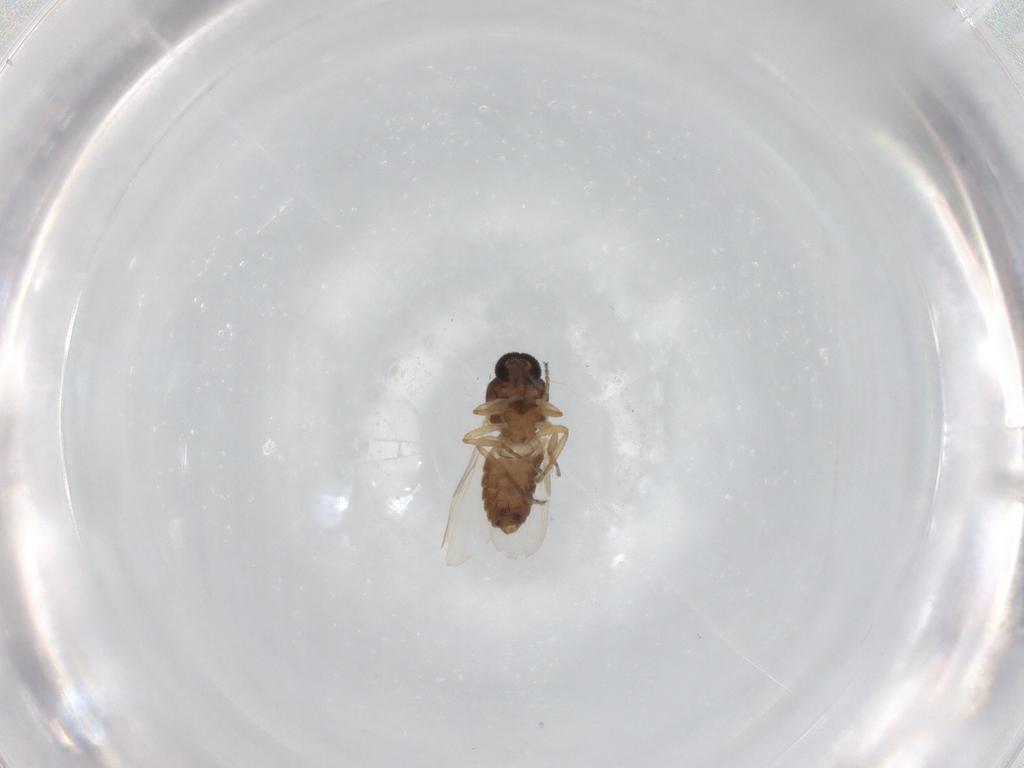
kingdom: Animalia
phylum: Arthropoda
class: Insecta
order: Diptera
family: Ceratopogonidae
